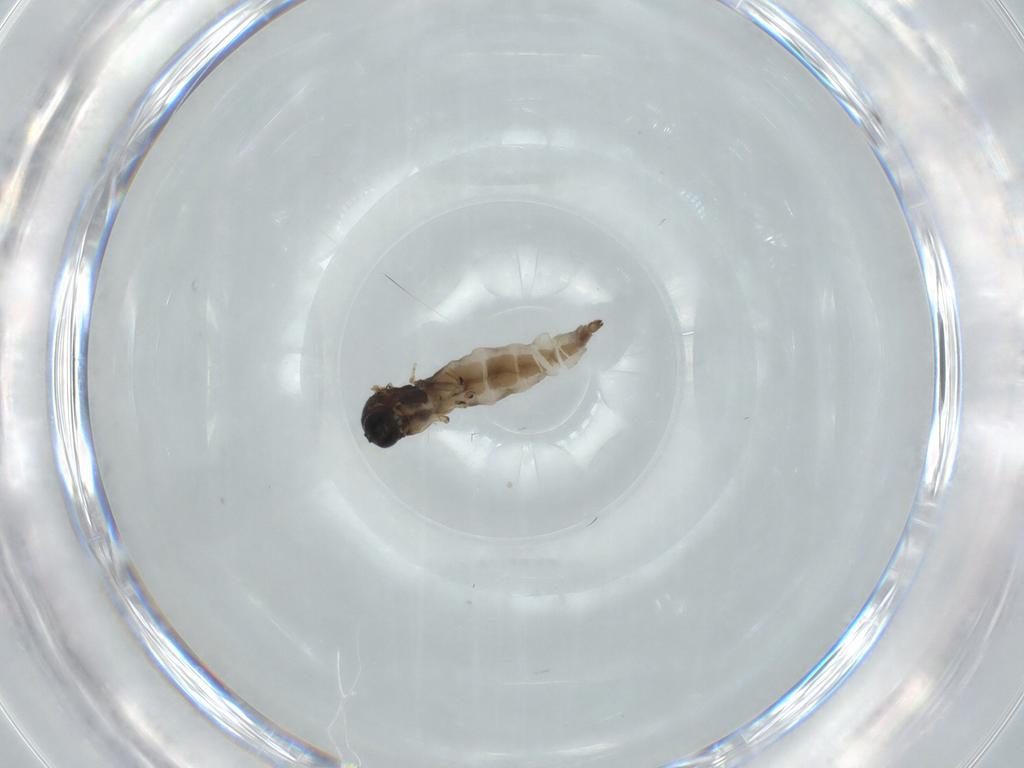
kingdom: Animalia
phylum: Arthropoda
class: Insecta
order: Diptera
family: Sciaridae
